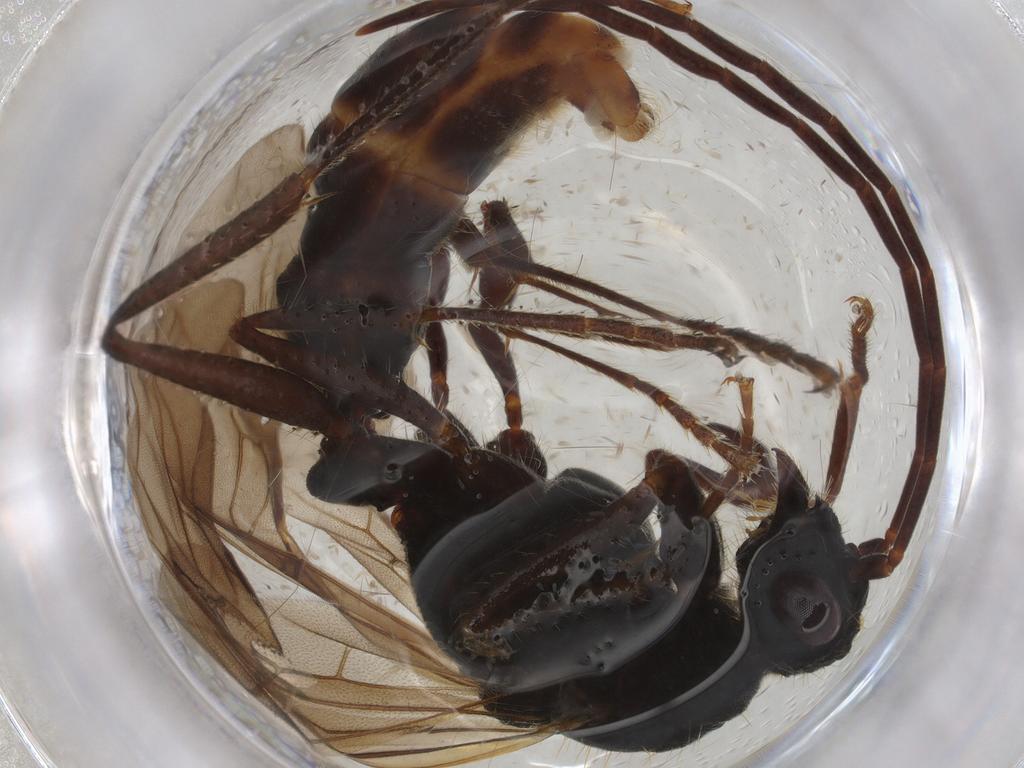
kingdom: Animalia
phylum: Arthropoda
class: Insecta
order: Hymenoptera
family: Formicidae
